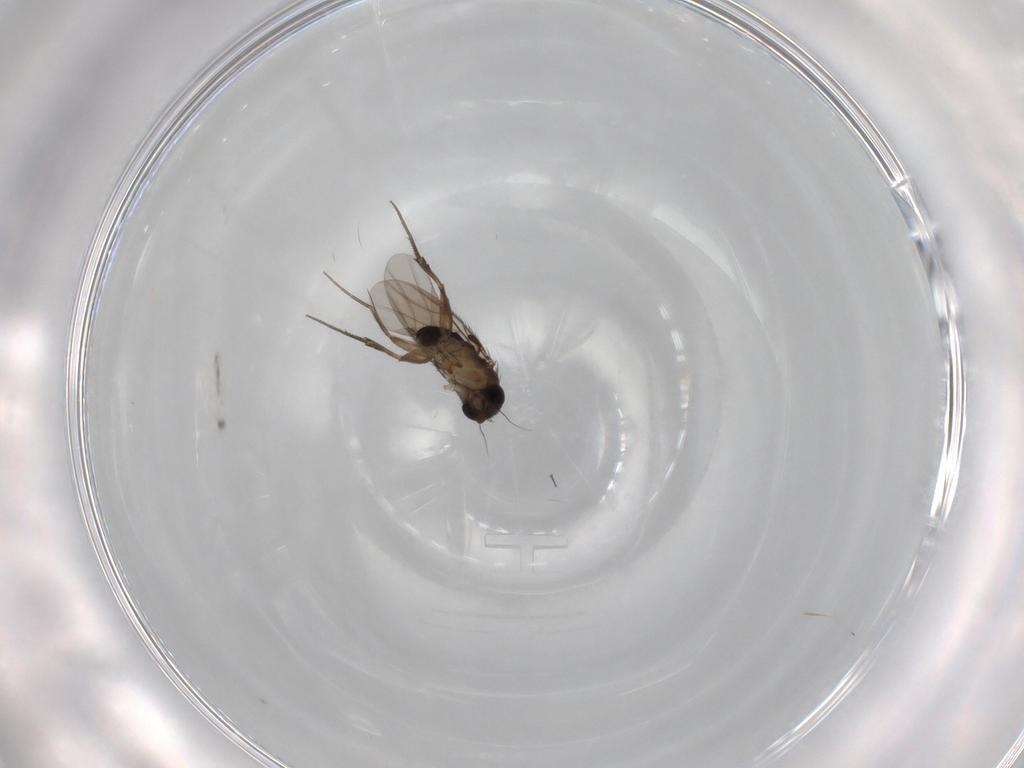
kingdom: Animalia
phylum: Arthropoda
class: Insecta
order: Diptera
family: Phoridae
